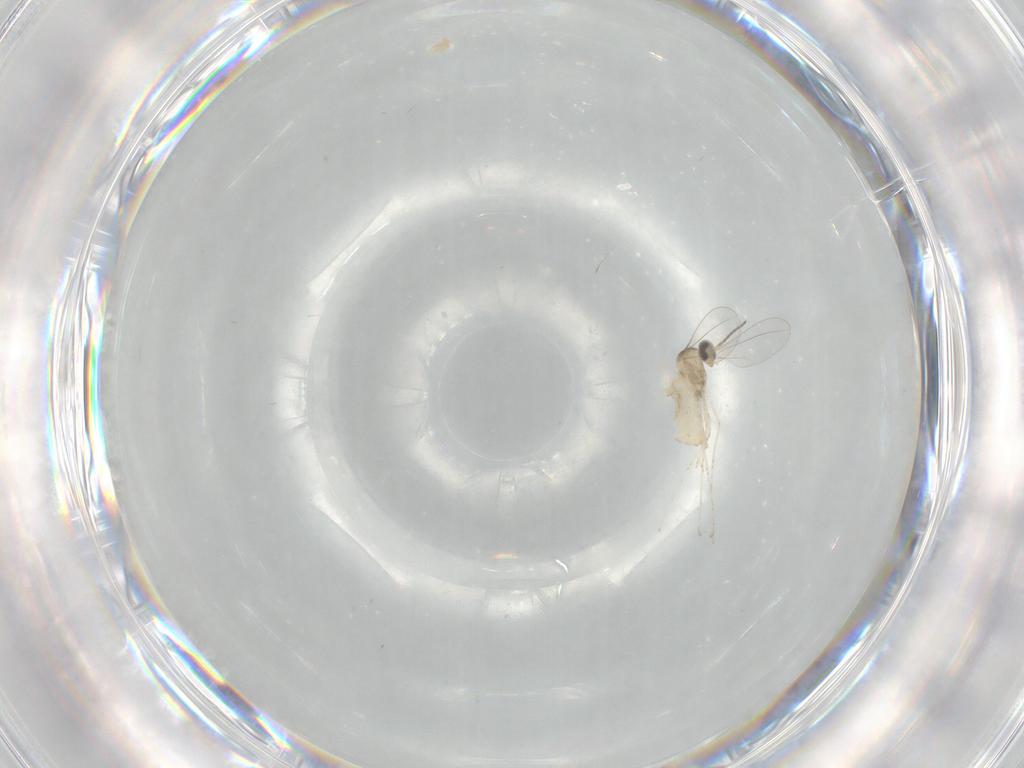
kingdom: Animalia
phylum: Arthropoda
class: Insecta
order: Diptera
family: Cecidomyiidae
